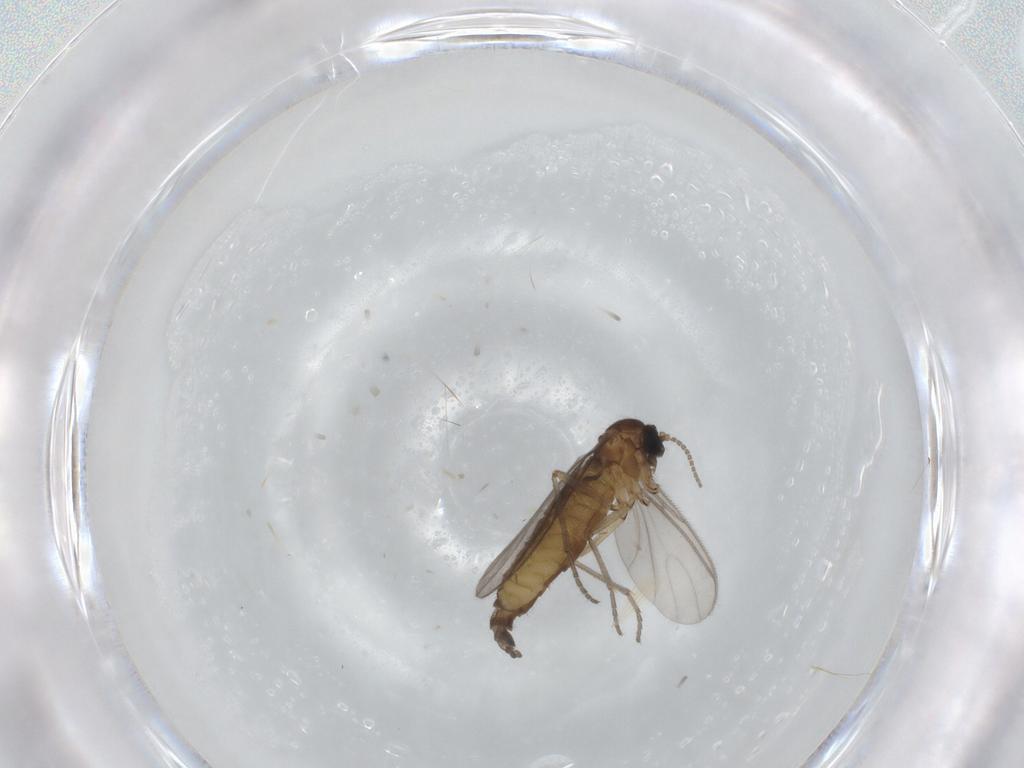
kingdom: Animalia
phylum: Arthropoda
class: Insecta
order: Diptera
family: Sciaridae
